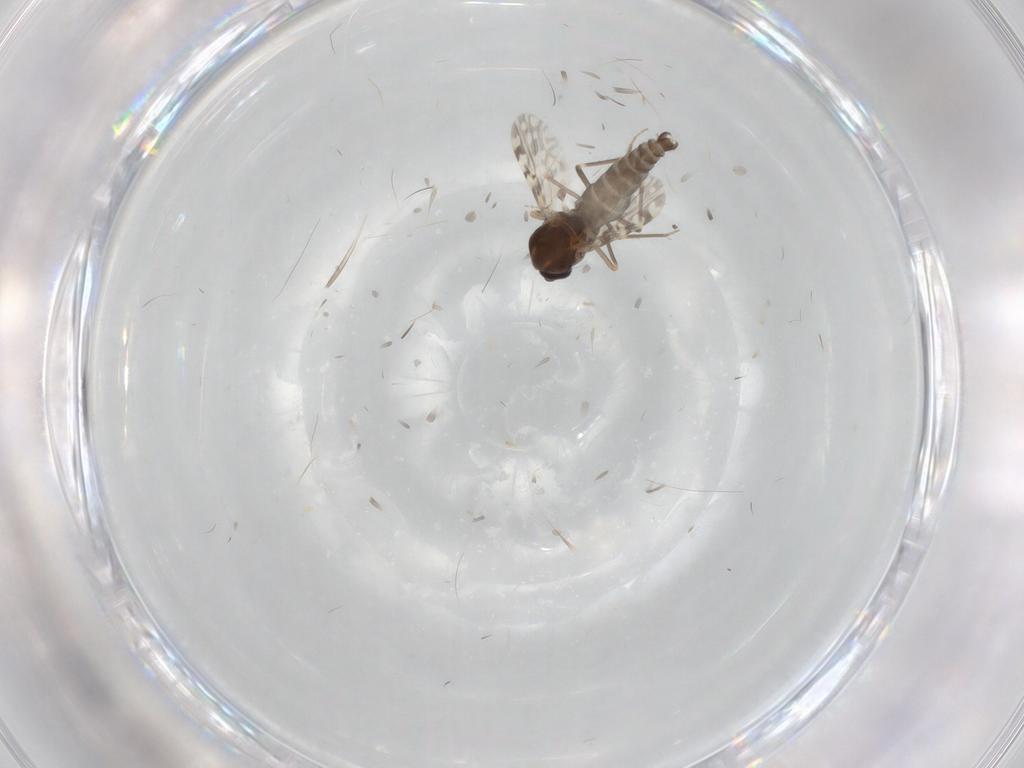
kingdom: Animalia
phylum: Arthropoda
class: Insecta
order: Diptera
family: Ceratopogonidae
